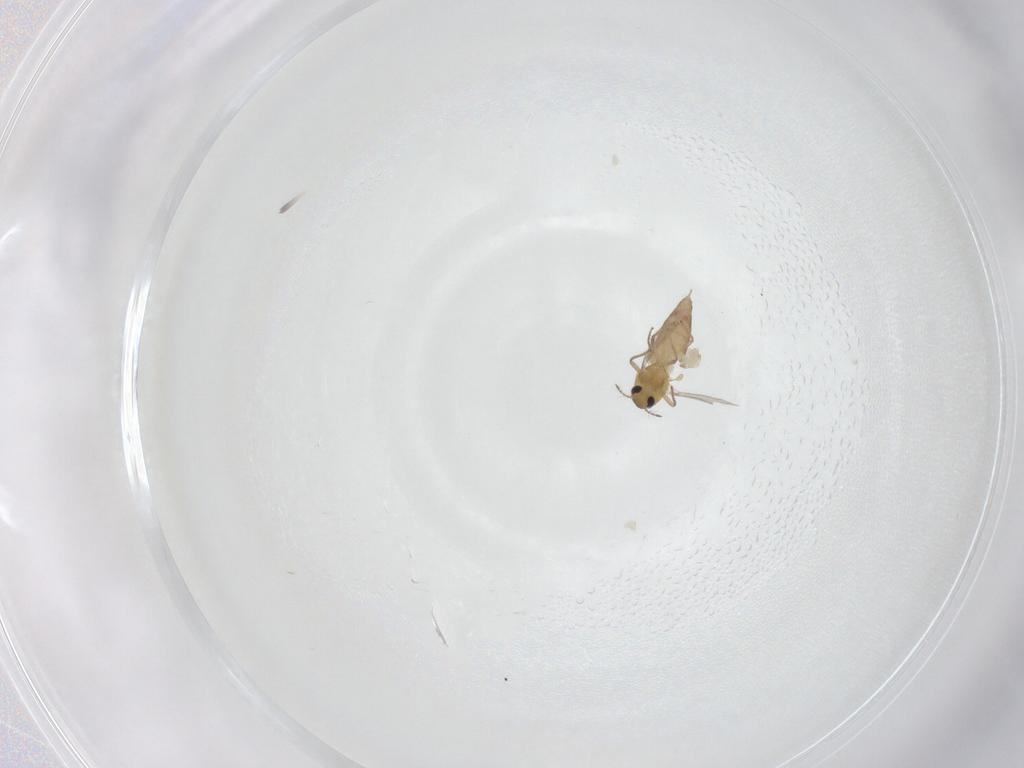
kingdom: Animalia
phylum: Arthropoda
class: Insecta
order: Diptera
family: Chironomidae
